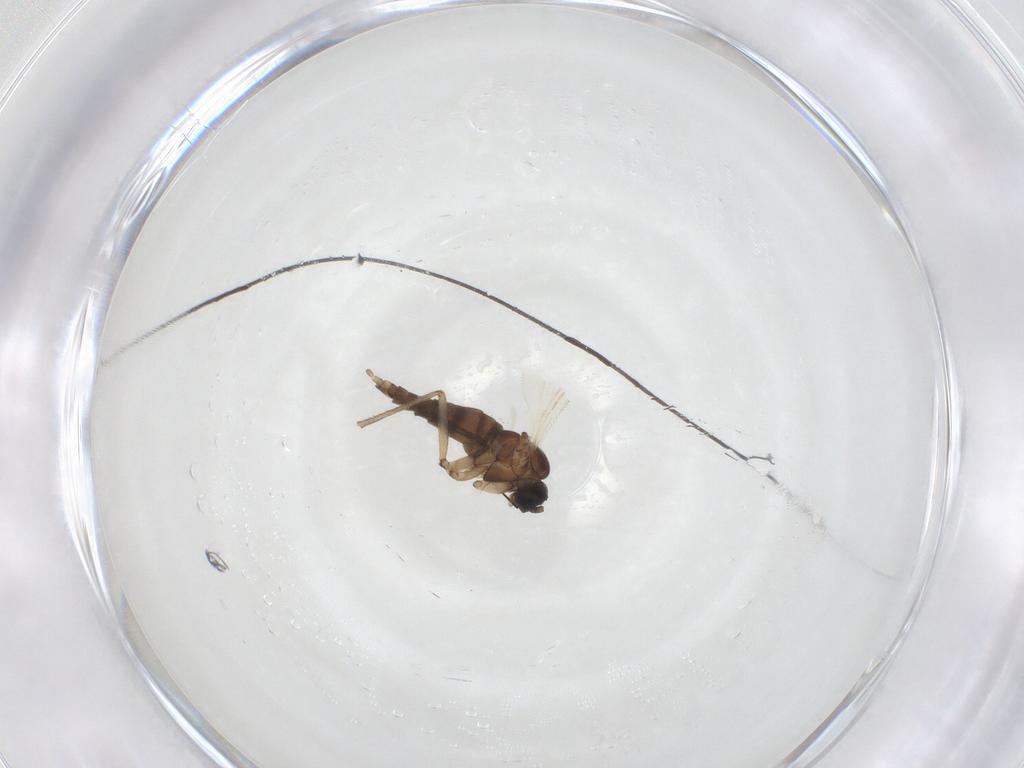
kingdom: Animalia
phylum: Arthropoda
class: Insecta
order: Diptera
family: Sciaridae
